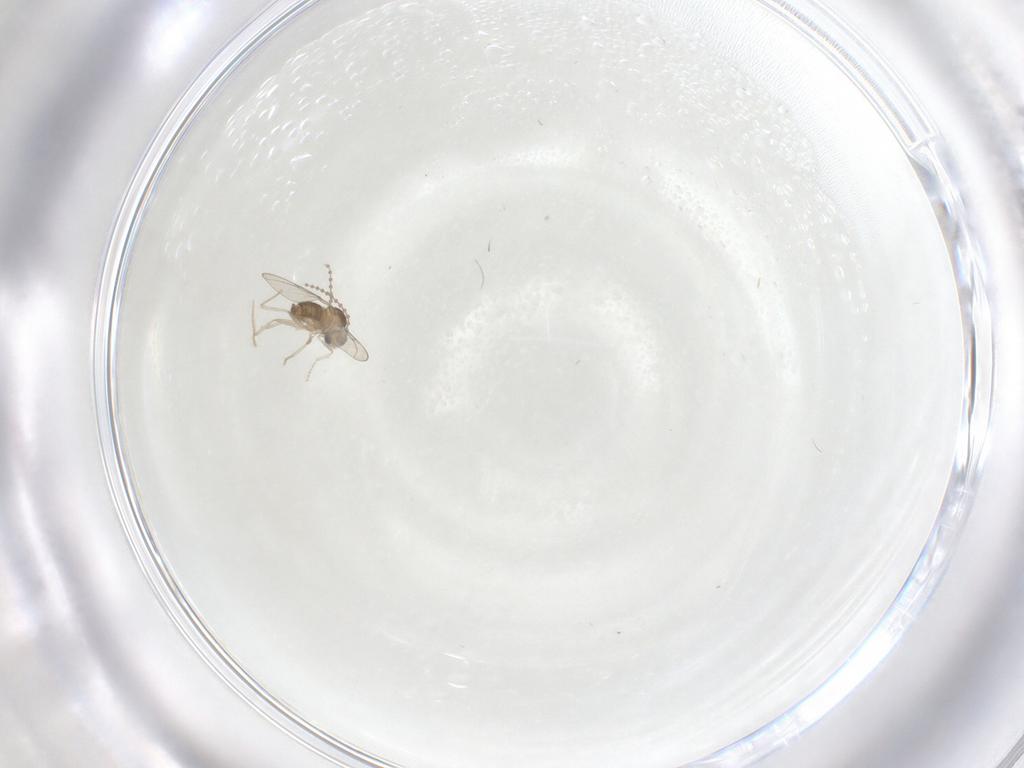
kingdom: Animalia
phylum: Arthropoda
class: Insecta
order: Diptera
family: Cecidomyiidae
